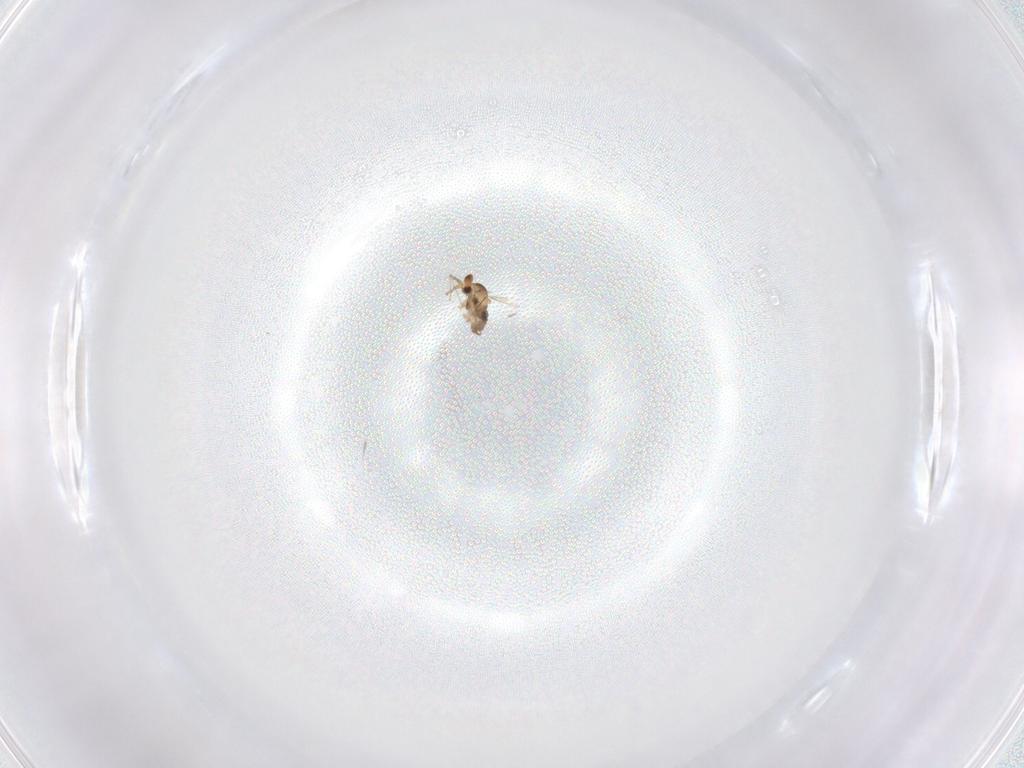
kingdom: Animalia
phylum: Arthropoda
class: Insecta
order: Diptera
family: Cecidomyiidae
